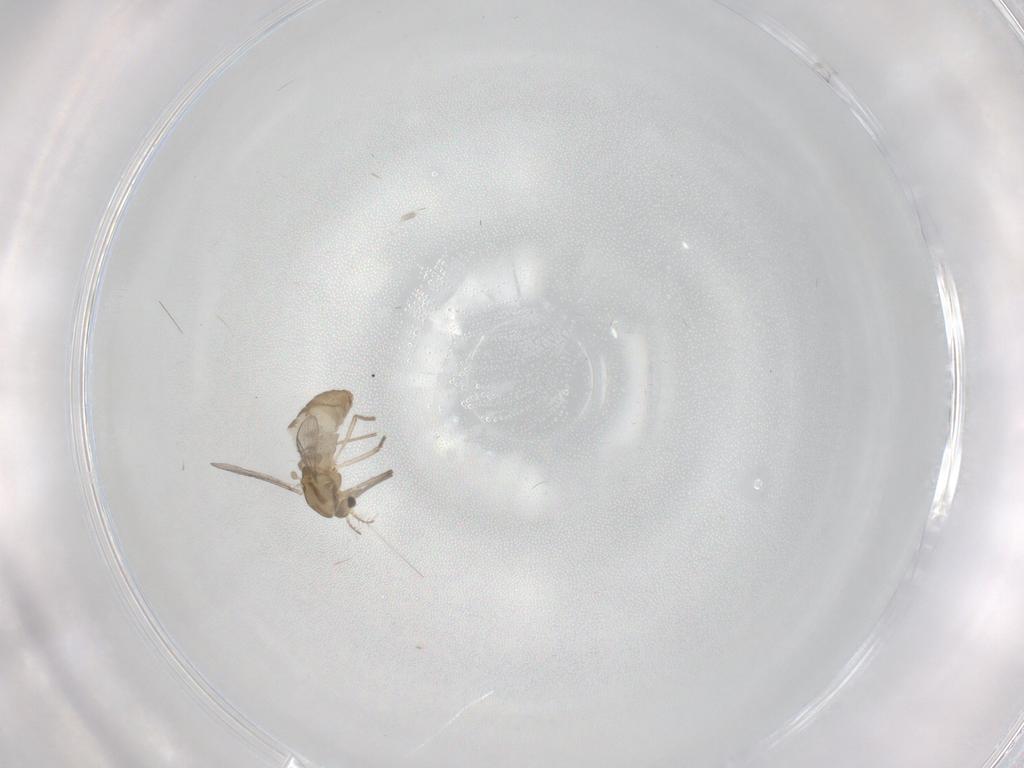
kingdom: Animalia
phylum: Arthropoda
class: Insecta
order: Diptera
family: Chironomidae
